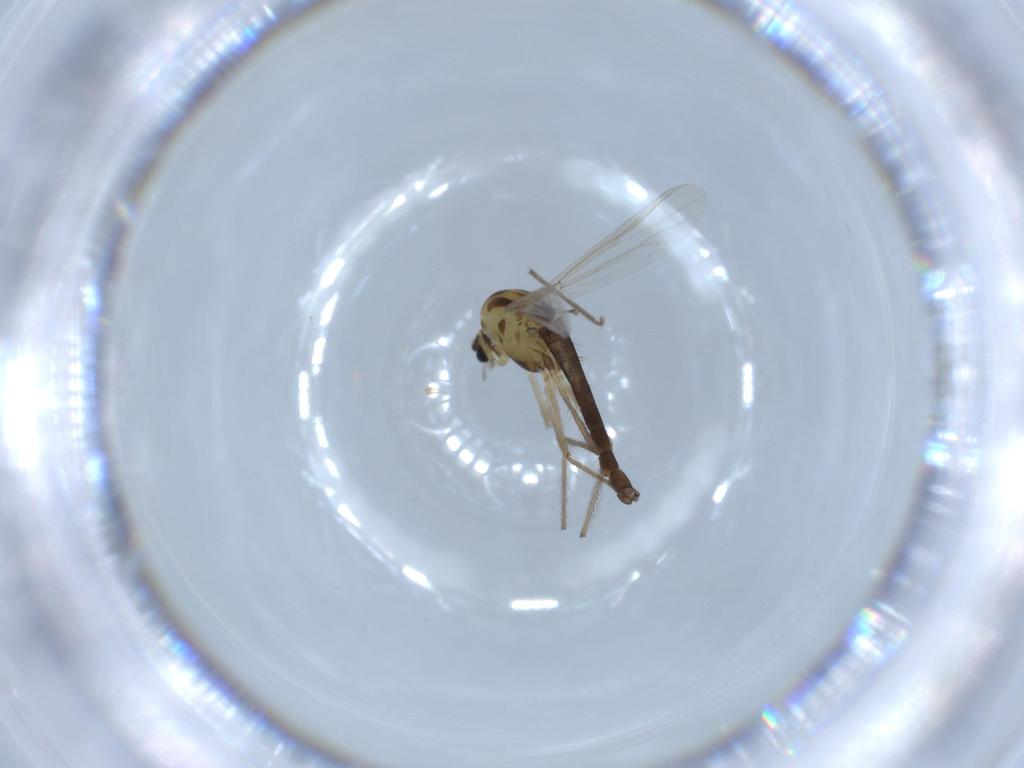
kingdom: Animalia
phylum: Arthropoda
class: Insecta
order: Diptera
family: Chironomidae
